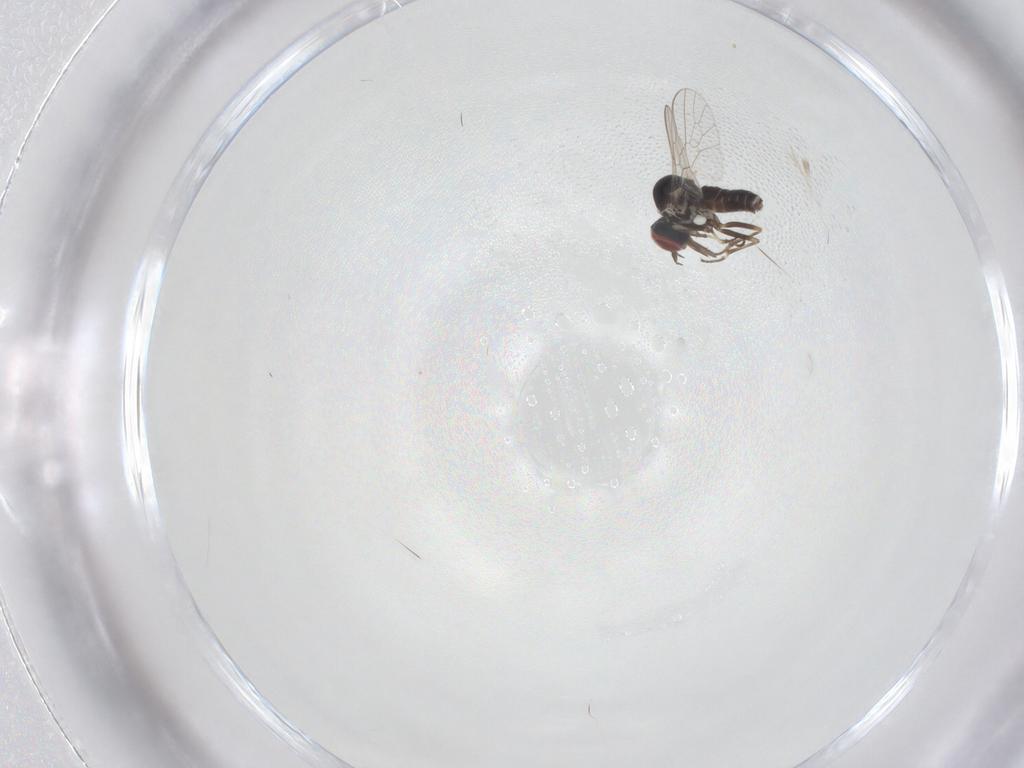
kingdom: Animalia
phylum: Arthropoda
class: Insecta
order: Diptera
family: Mythicomyiidae
